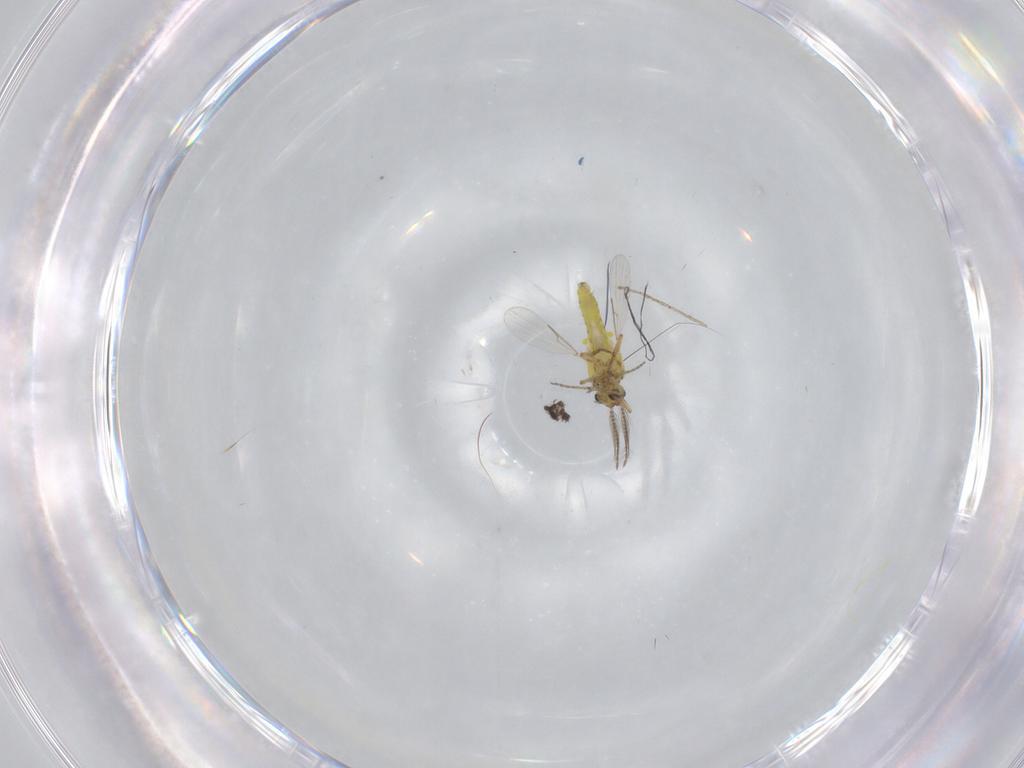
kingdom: Animalia
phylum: Arthropoda
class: Insecta
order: Diptera
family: Ceratopogonidae
